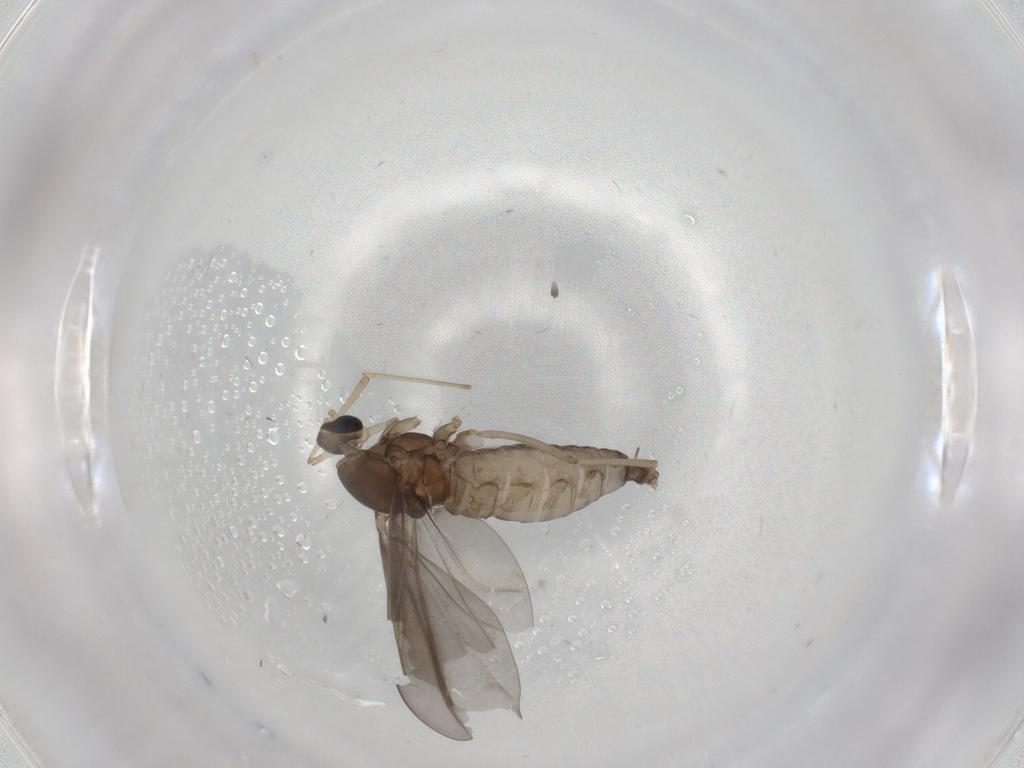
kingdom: Animalia
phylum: Arthropoda
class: Insecta
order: Diptera
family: Cecidomyiidae
